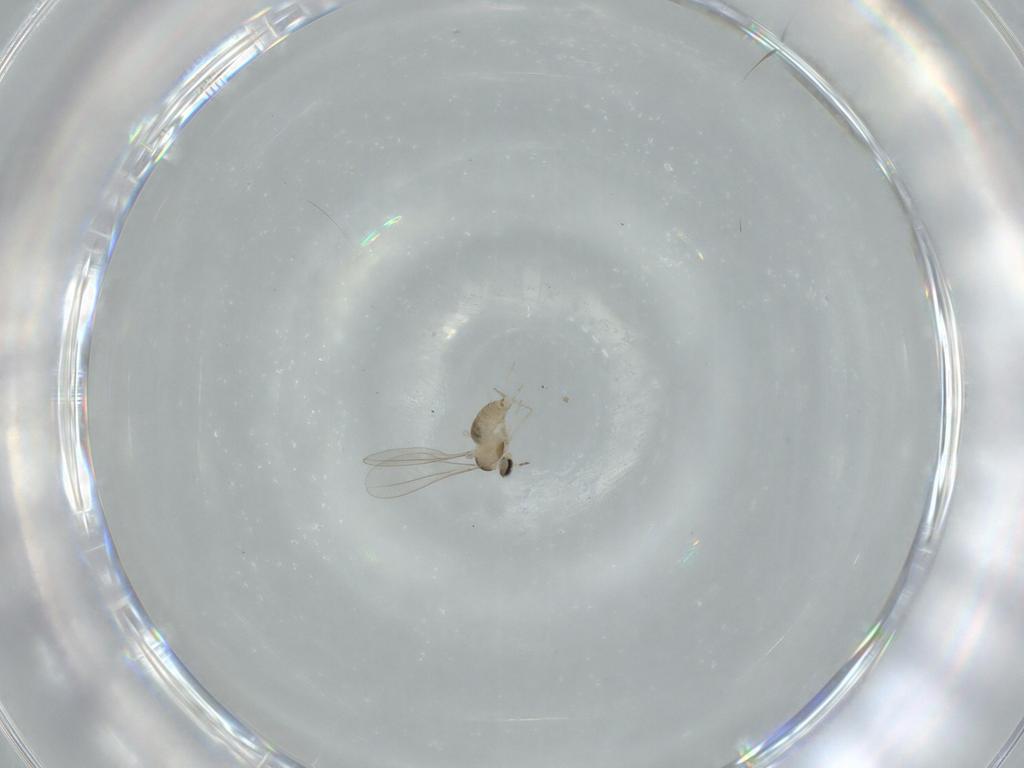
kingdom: Animalia
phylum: Arthropoda
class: Insecta
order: Diptera
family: Cecidomyiidae
